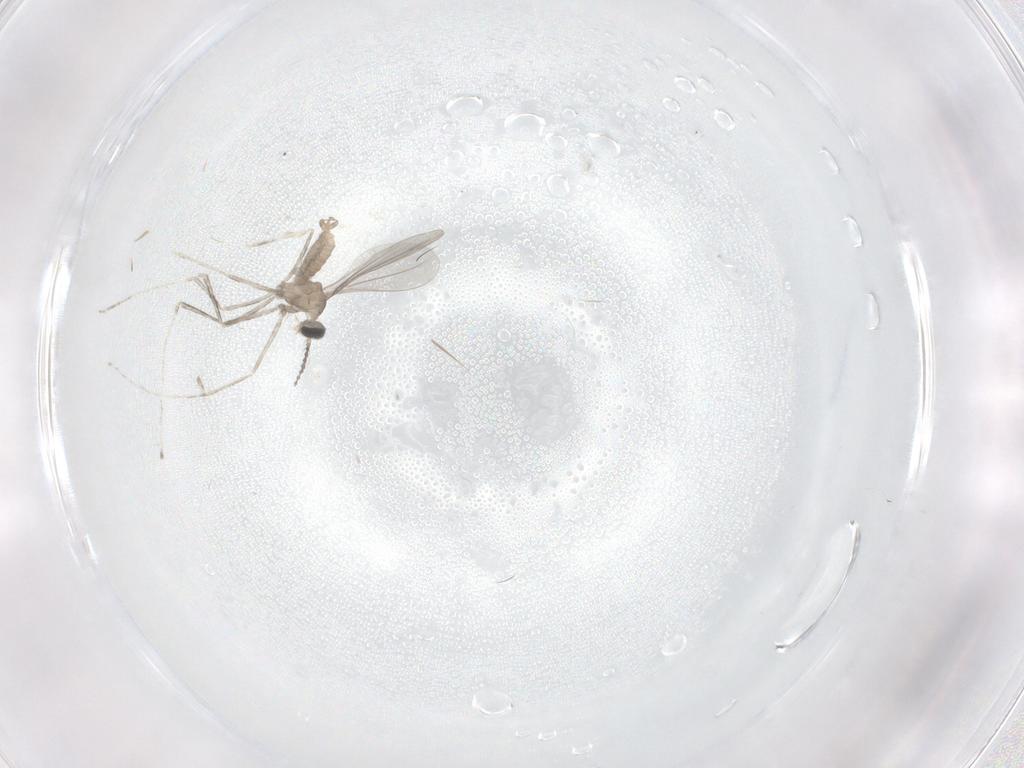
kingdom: Animalia
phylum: Arthropoda
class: Insecta
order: Diptera
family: Cecidomyiidae
